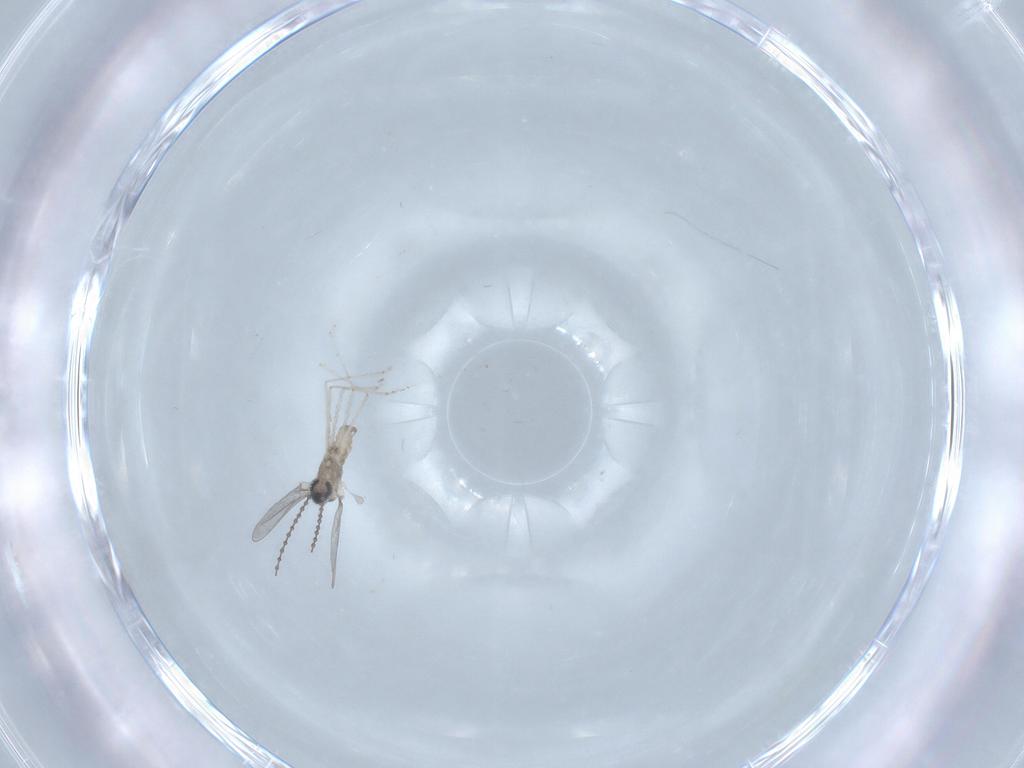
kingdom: Animalia
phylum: Arthropoda
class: Insecta
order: Diptera
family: Cecidomyiidae
